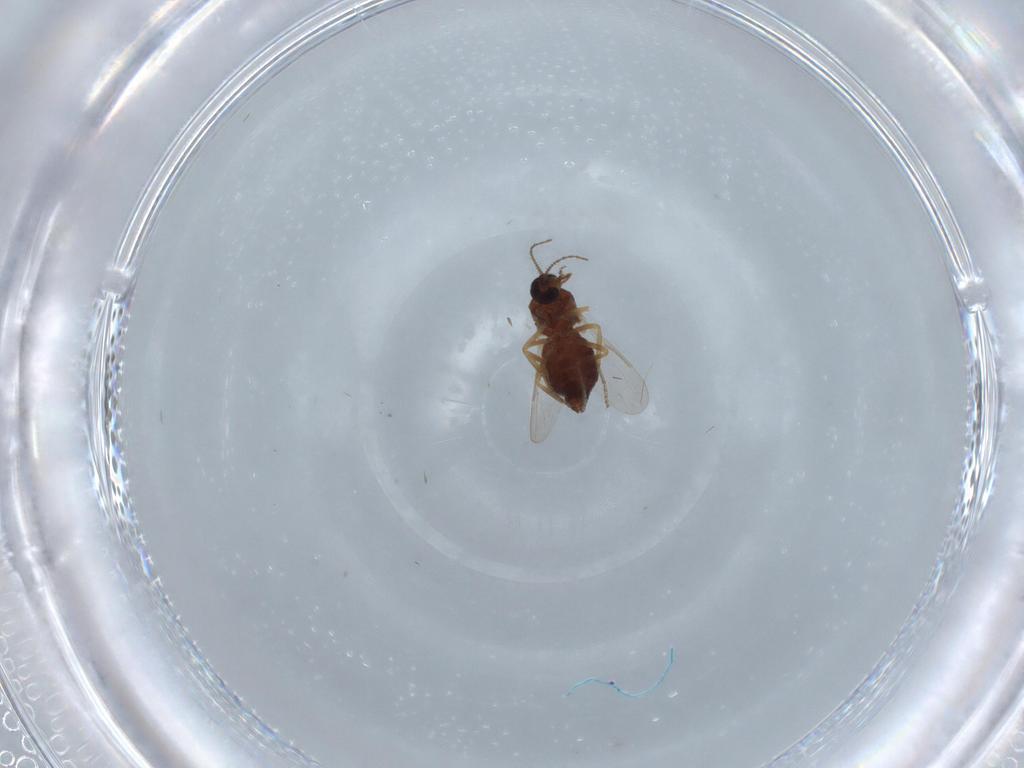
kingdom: Animalia
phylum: Arthropoda
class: Insecta
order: Diptera
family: Ceratopogonidae
